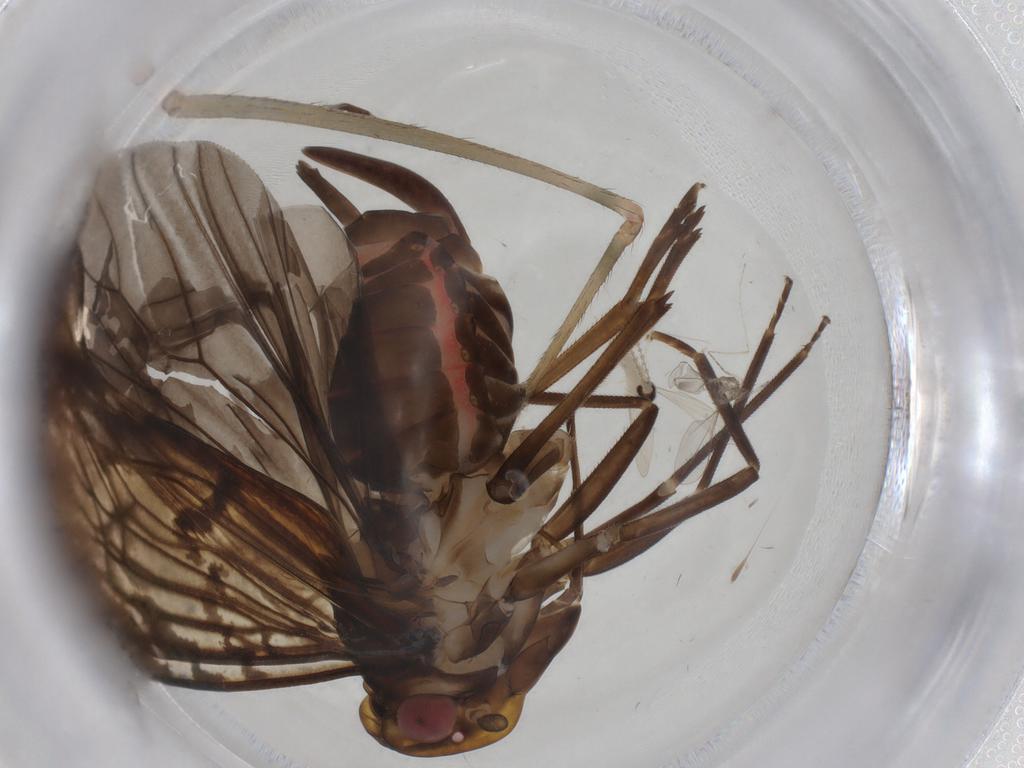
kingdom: Animalia
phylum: Arthropoda
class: Insecta
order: Hemiptera
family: Cixiidae
